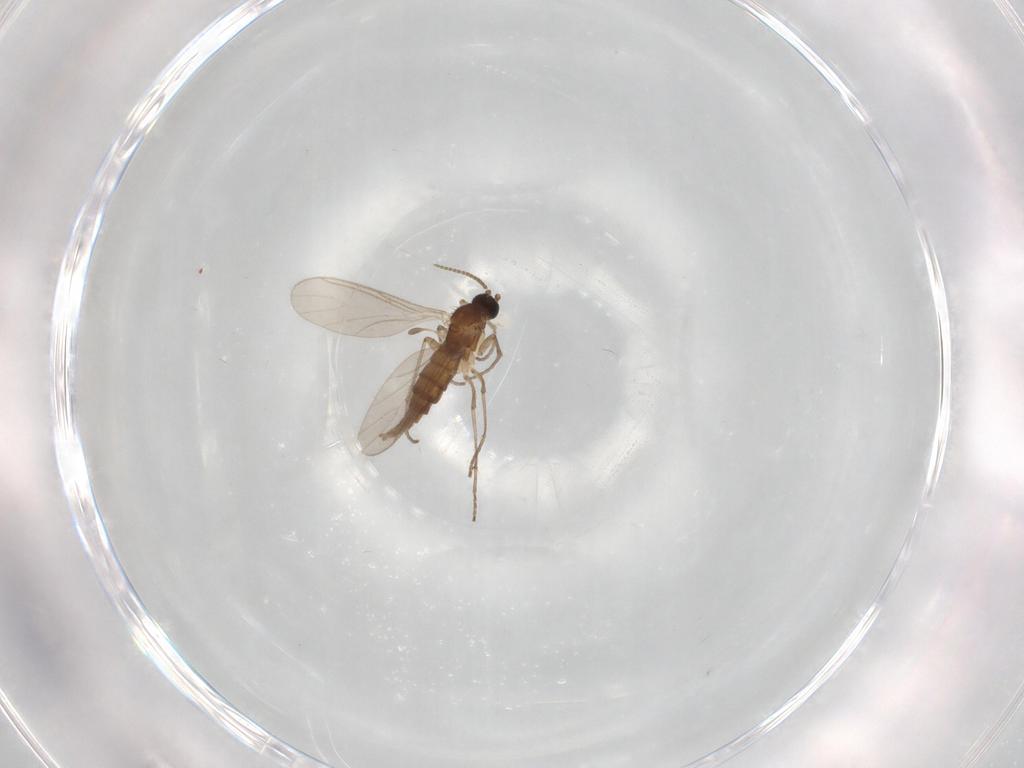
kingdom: Animalia
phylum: Arthropoda
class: Insecta
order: Diptera
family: Sciaridae
